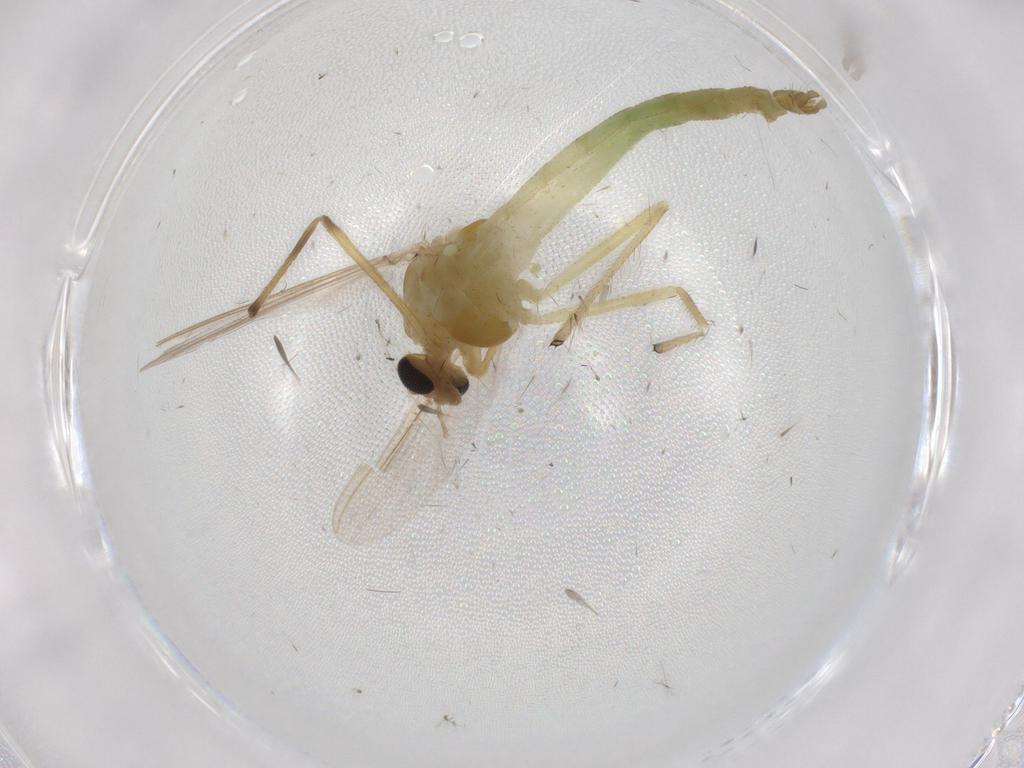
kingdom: Animalia
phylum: Arthropoda
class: Insecta
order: Diptera
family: Ceratopogonidae
